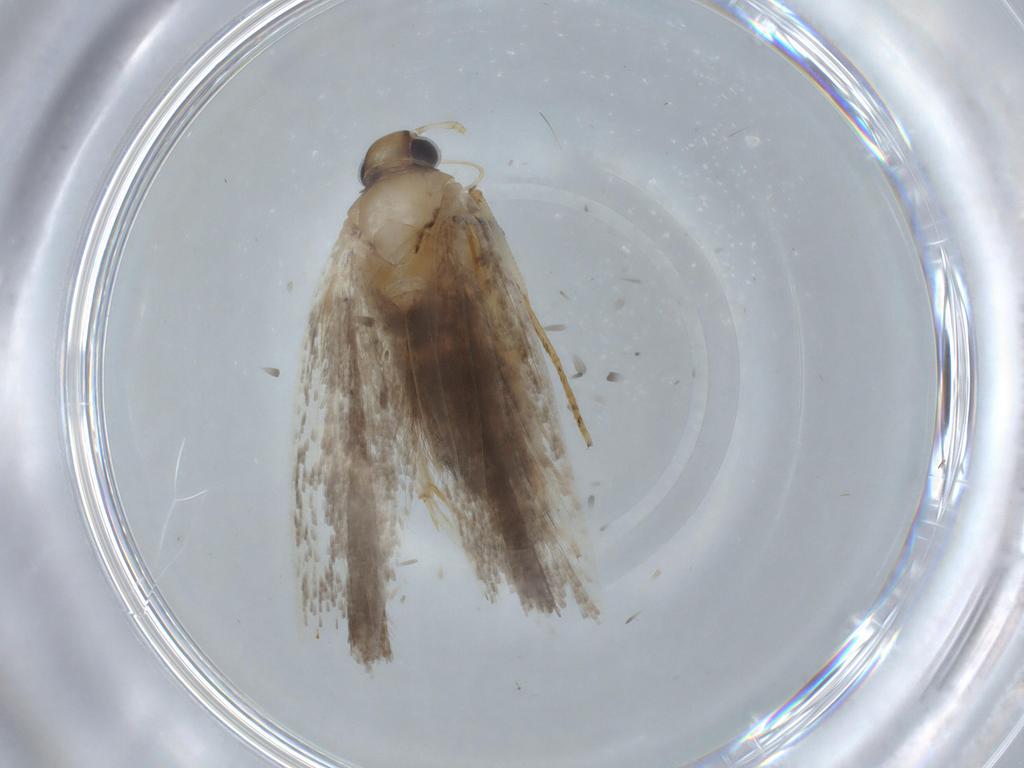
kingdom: Animalia
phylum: Arthropoda
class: Insecta
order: Lepidoptera
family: Gelechiidae
